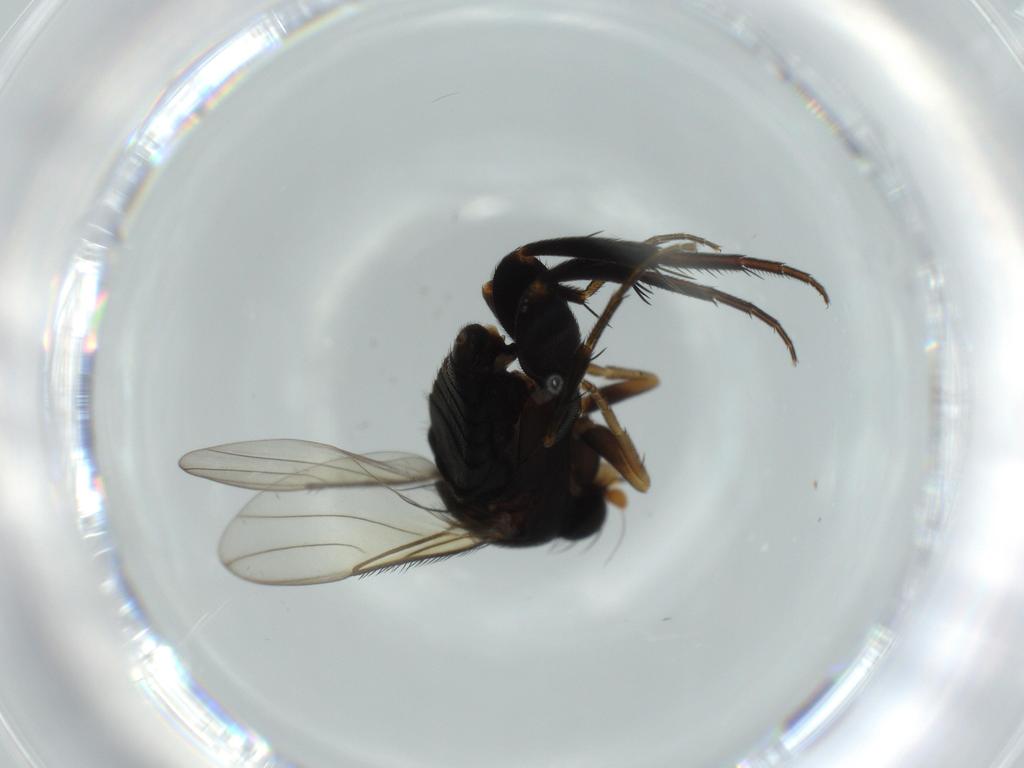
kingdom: Animalia
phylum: Arthropoda
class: Insecta
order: Diptera
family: Phoridae
